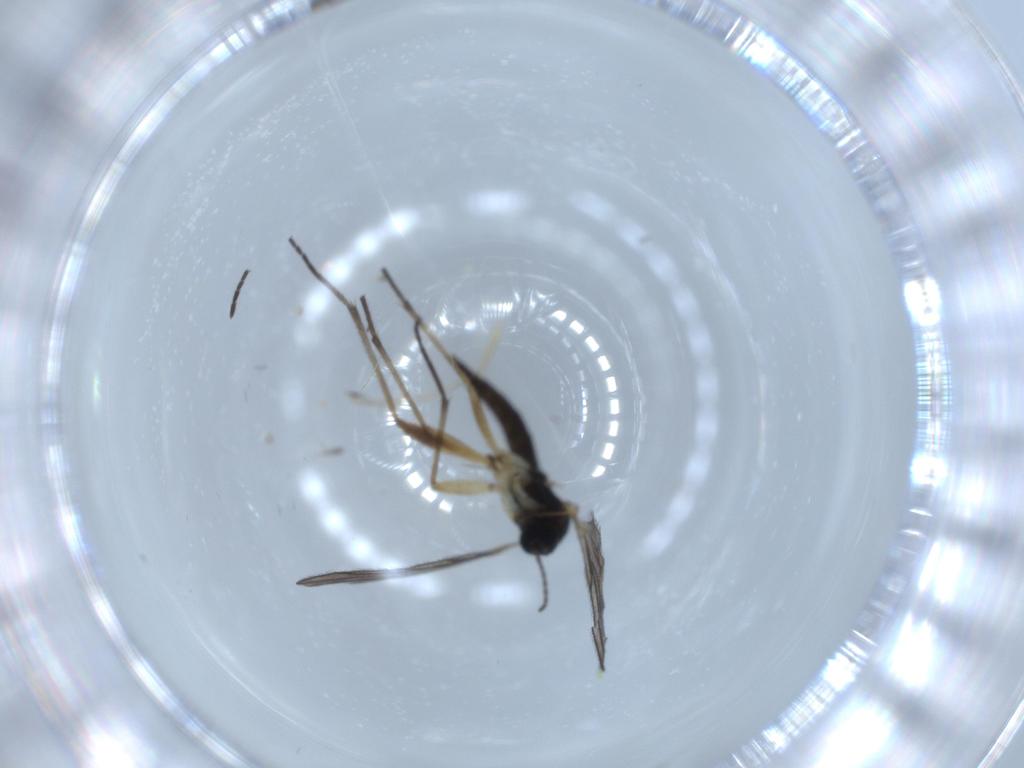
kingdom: Animalia
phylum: Arthropoda
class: Insecta
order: Diptera
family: Sciaridae
